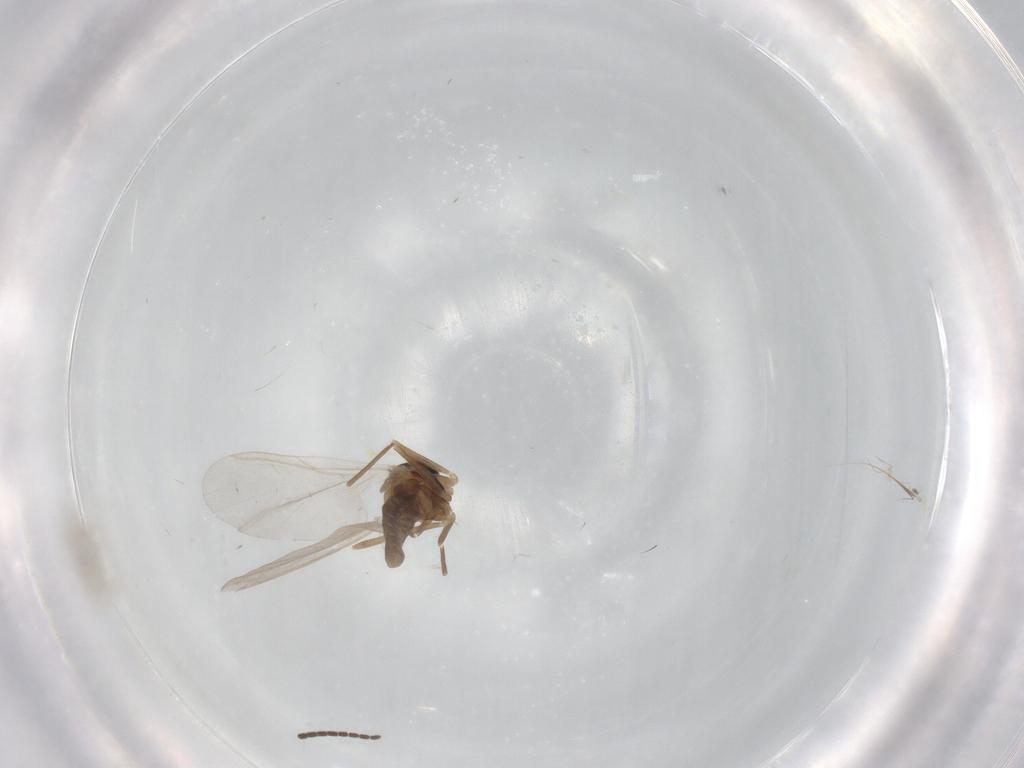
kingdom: Animalia
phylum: Arthropoda
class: Insecta
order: Diptera
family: Cecidomyiidae
